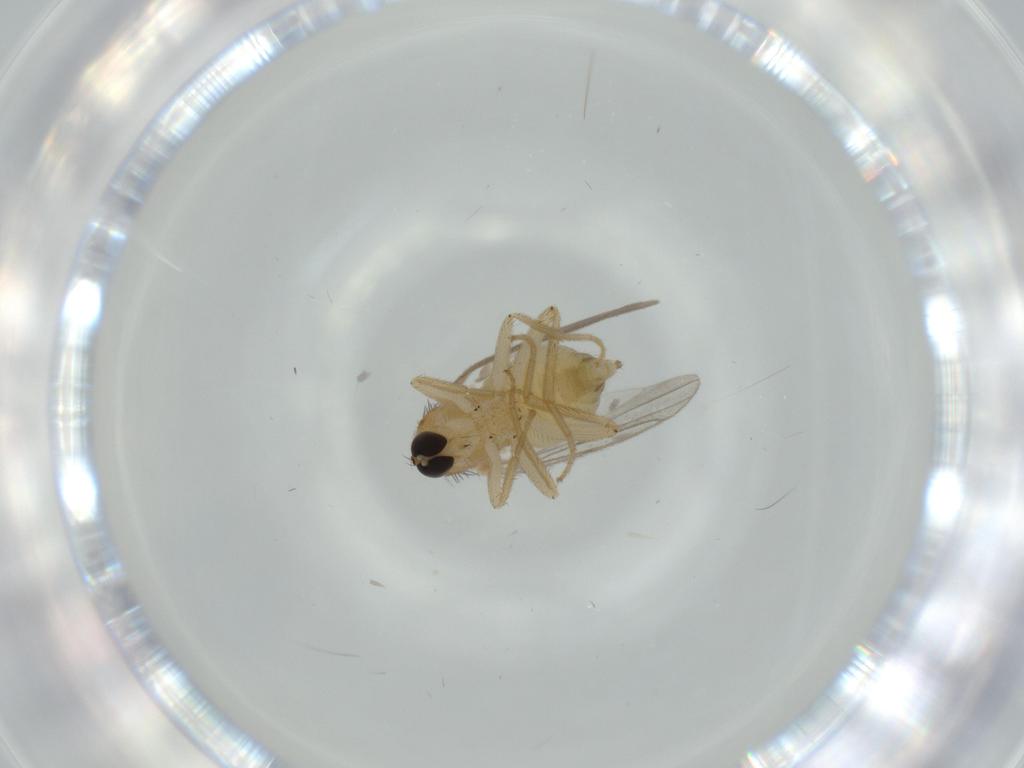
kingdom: Animalia
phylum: Arthropoda
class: Insecta
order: Diptera
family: Hybotidae
